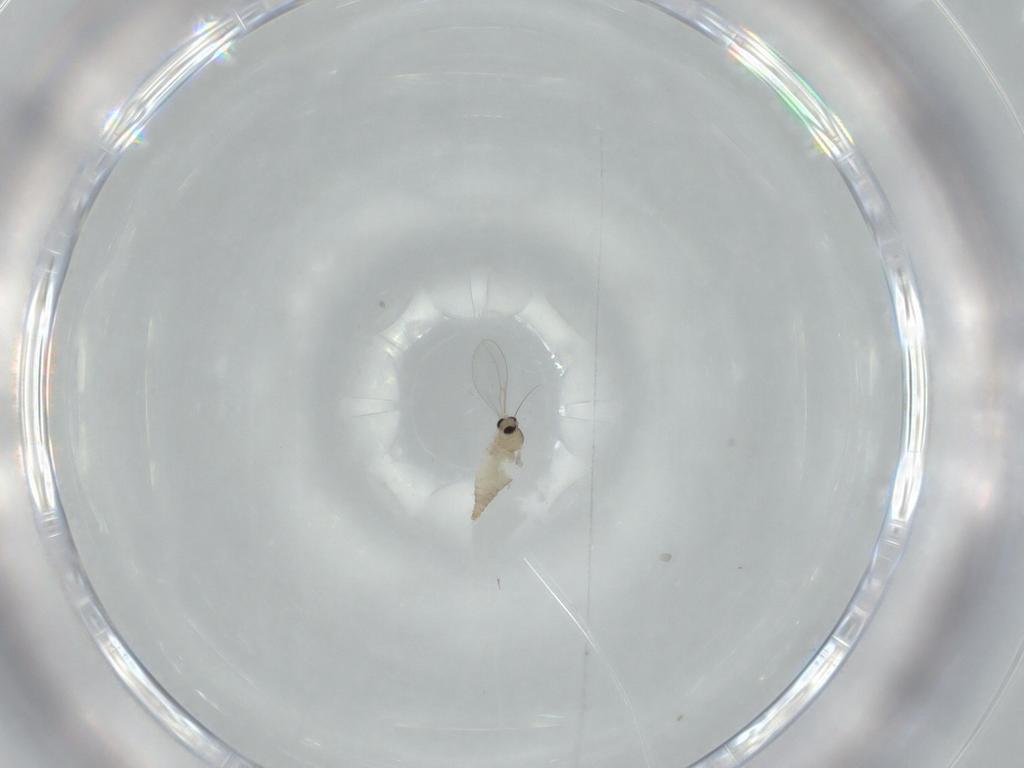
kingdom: Animalia
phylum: Arthropoda
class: Insecta
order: Diptera
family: Cecidomyiidae
